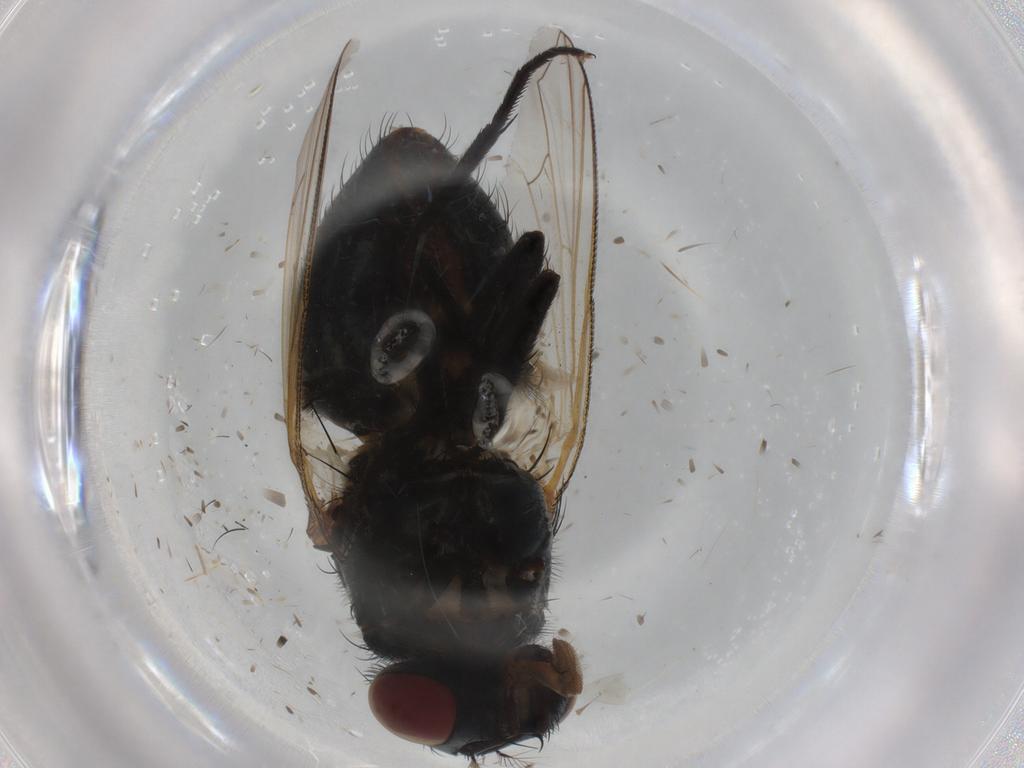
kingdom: Animalia
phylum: Arthropoda
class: Insecta
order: Diptera
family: Muscidae
